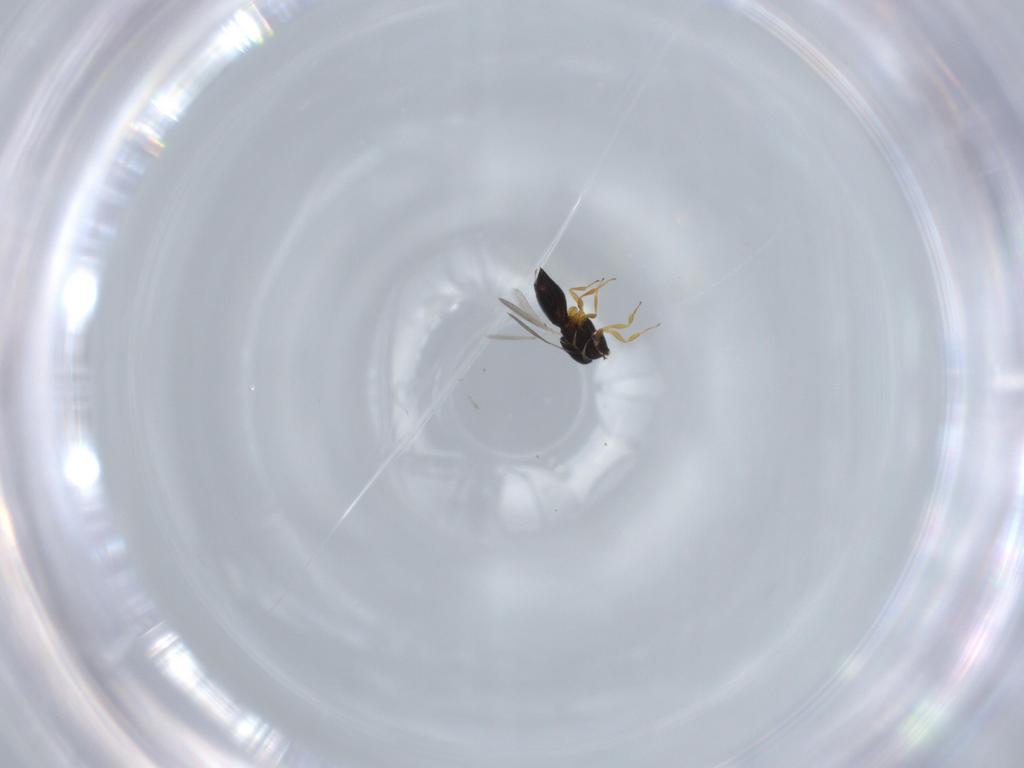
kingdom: Animalia
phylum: Arthropoda
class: Insecta
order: Hymenoptera
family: Scelionidae
